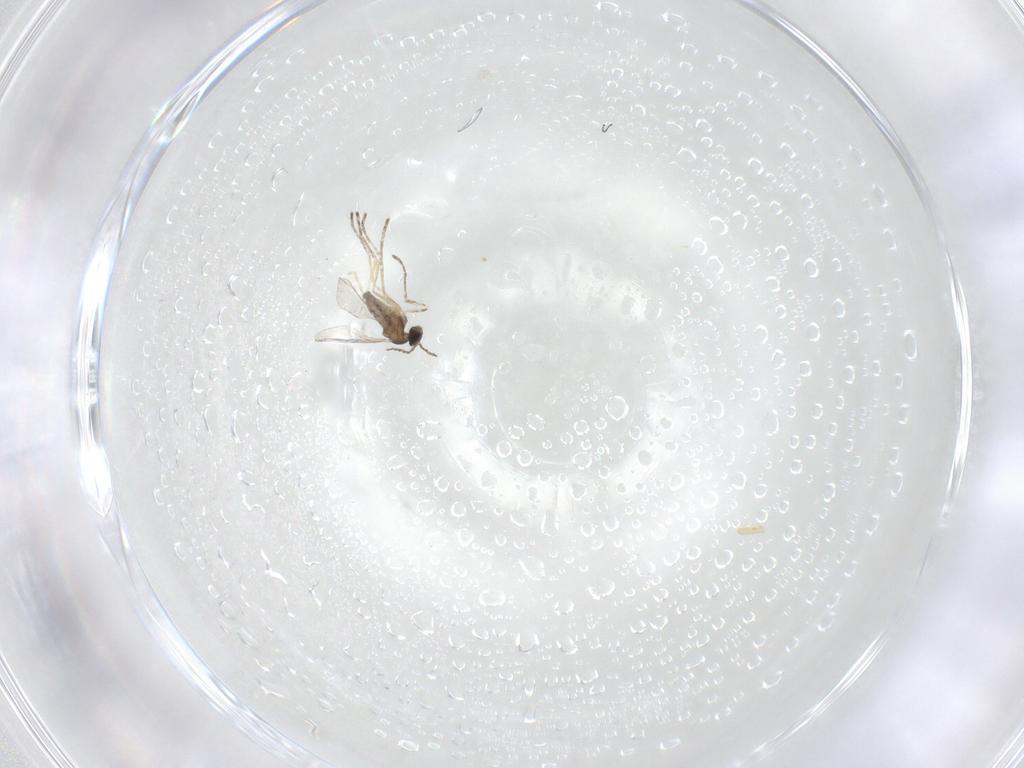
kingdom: Animalia
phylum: Arthropoda
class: Insecta
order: Diptera
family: Cecidomyiidae
